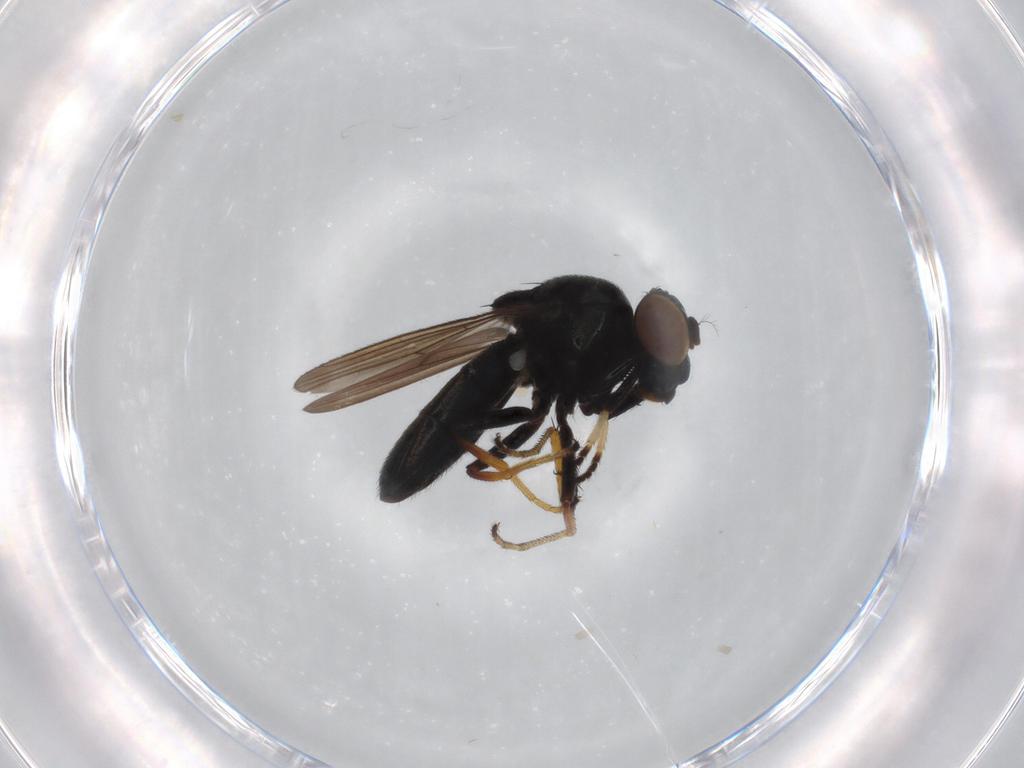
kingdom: Animalia
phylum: Arthropoda
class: Insecta
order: Diptera
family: Ephydridae
